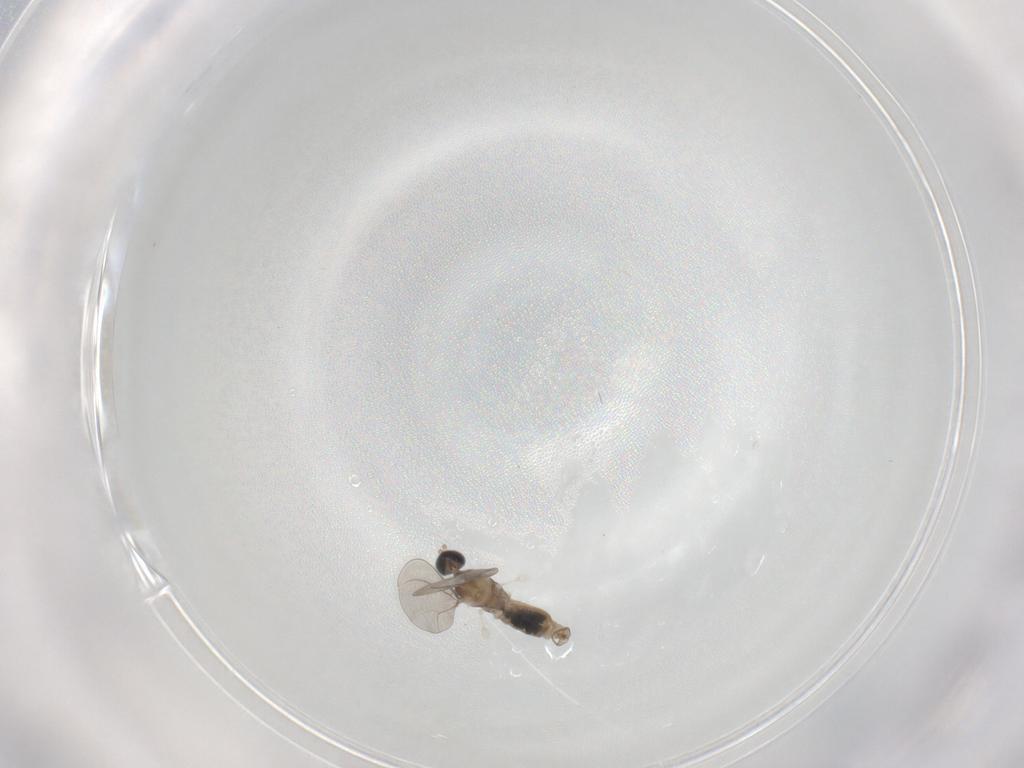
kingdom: Animalia
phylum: Arthropoda
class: Insecta
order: Diptera
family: Cecidomyiidae
